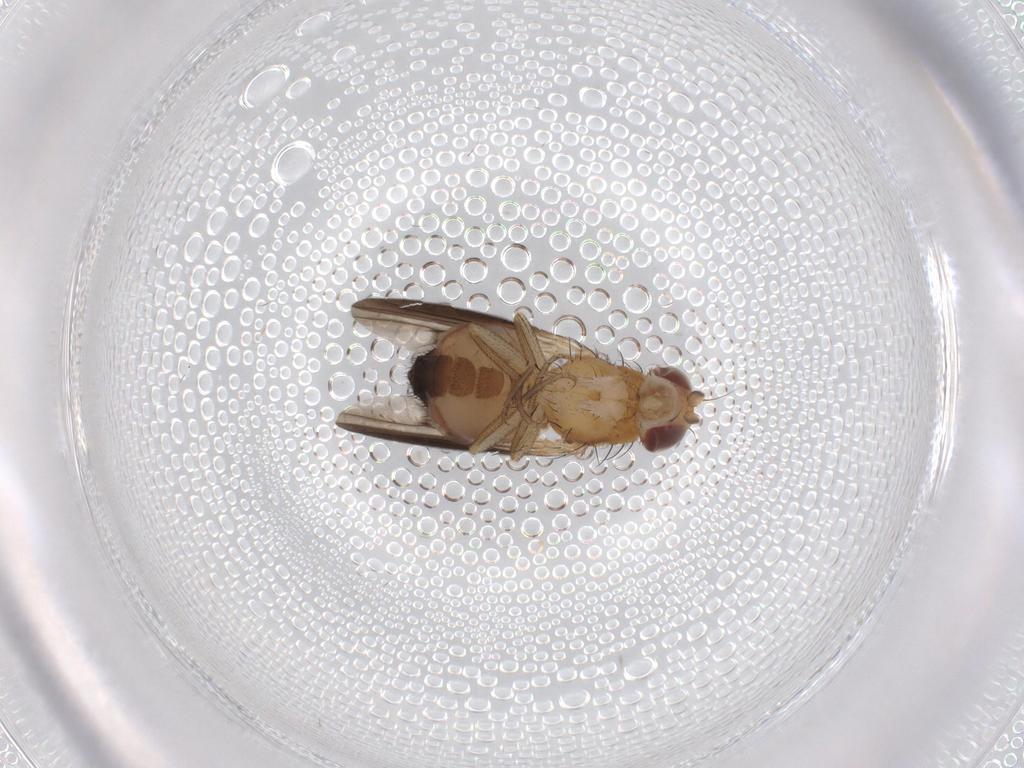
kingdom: Animalia
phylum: Arthropoda
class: Insecta
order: Diptera
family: Heleomyzidae
